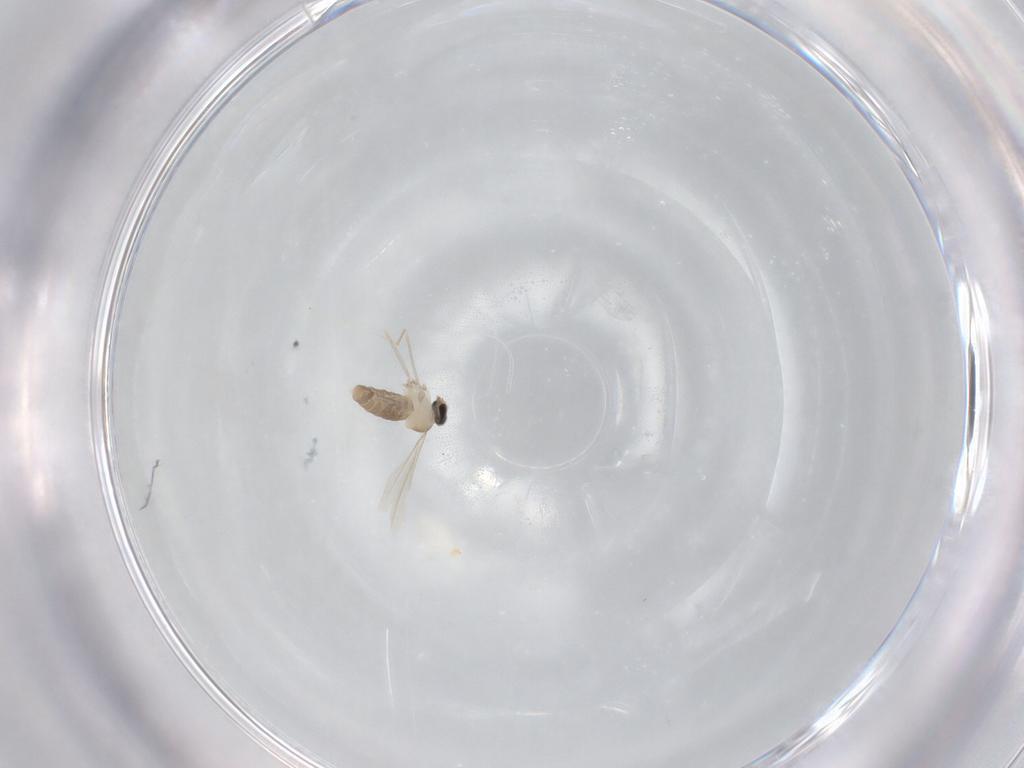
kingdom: Animalia
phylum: Arthropoda
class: Insecta
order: Diptera
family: Cecidomyiidae
